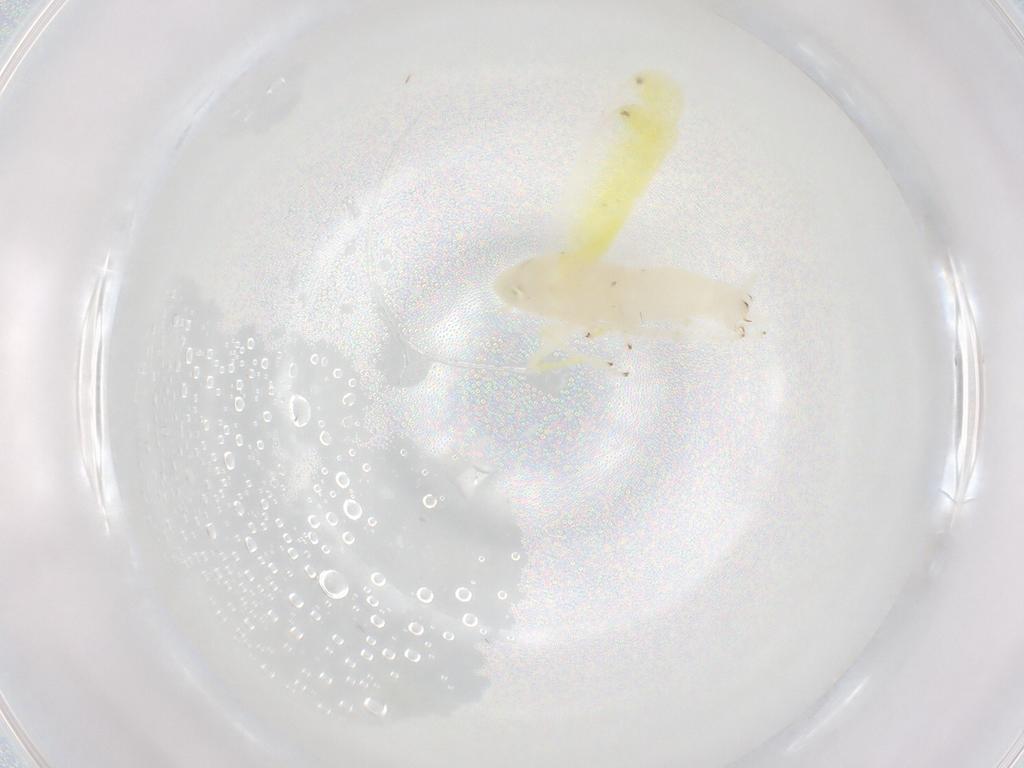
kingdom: Animalia
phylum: Arthropoda
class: Insecta
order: Hemiptera
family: Cicadellidae
